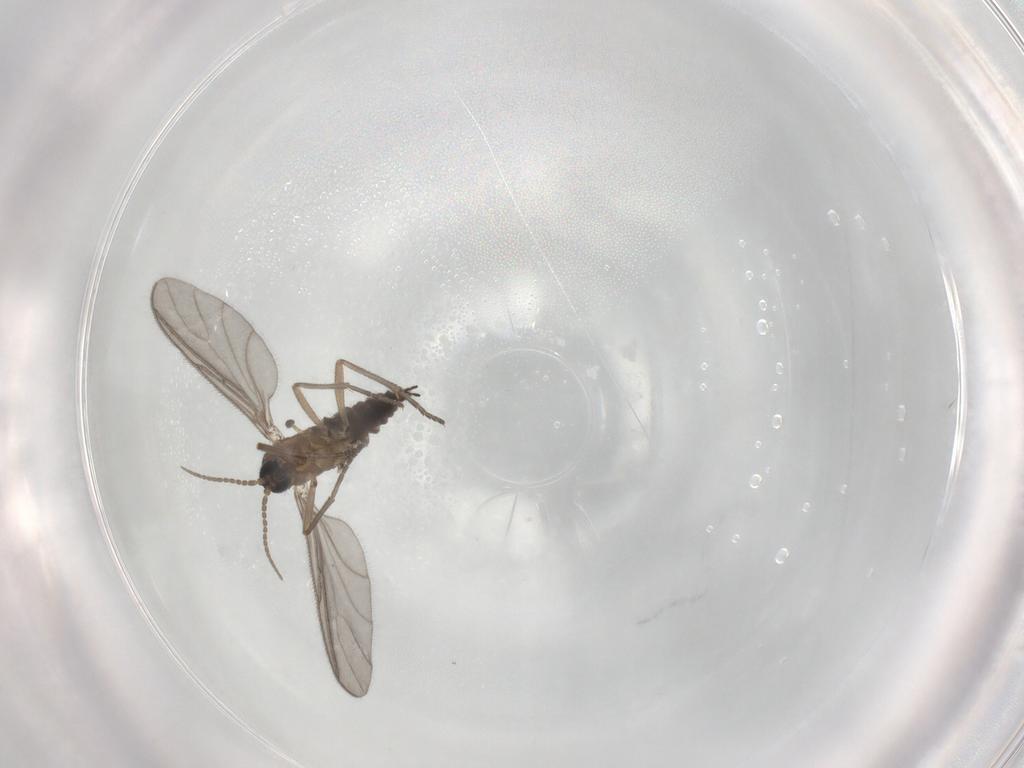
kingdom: Animalia
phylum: Arthropoda
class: Insecta
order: Diptera
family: Sciaridae
